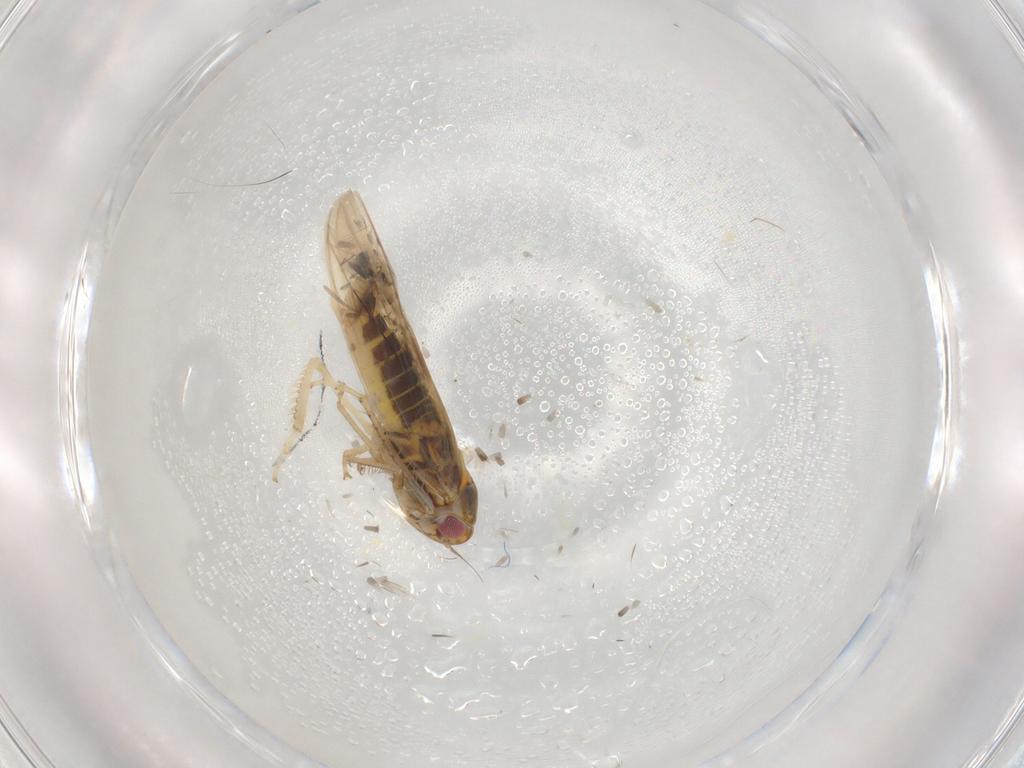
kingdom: Animalia
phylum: Arthropoda
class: Insecta
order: Hemiptera
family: Cicadellidae
